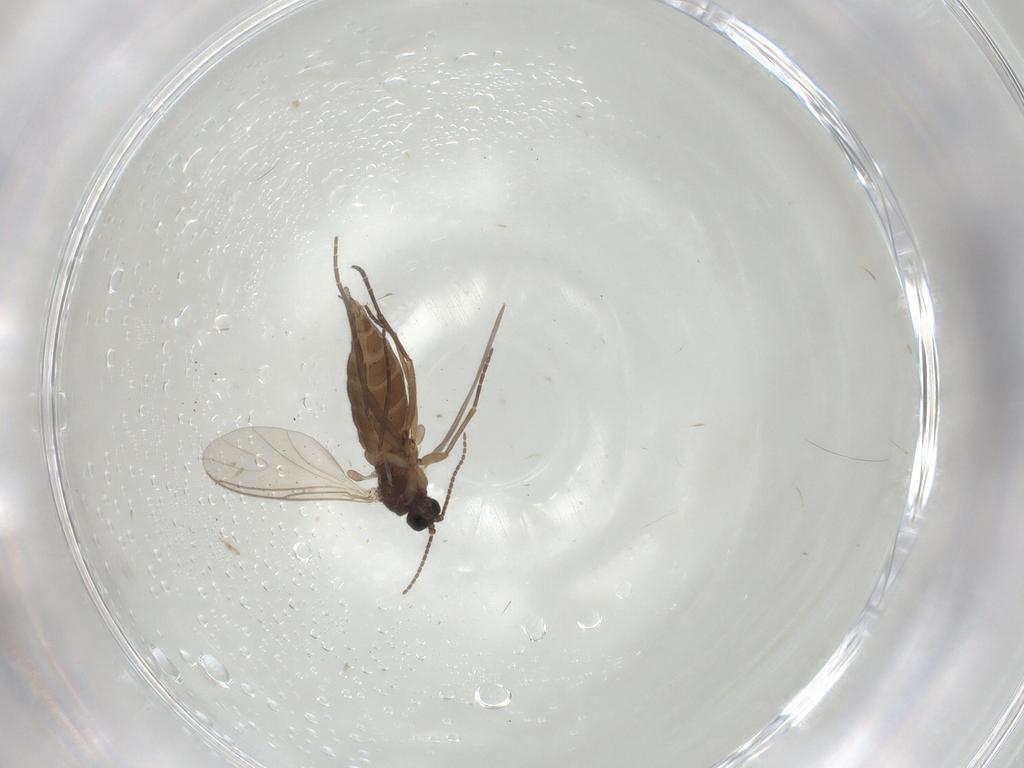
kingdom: Animalia
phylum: Arthropoda
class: Insecta
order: Diptera
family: Sciaridae
